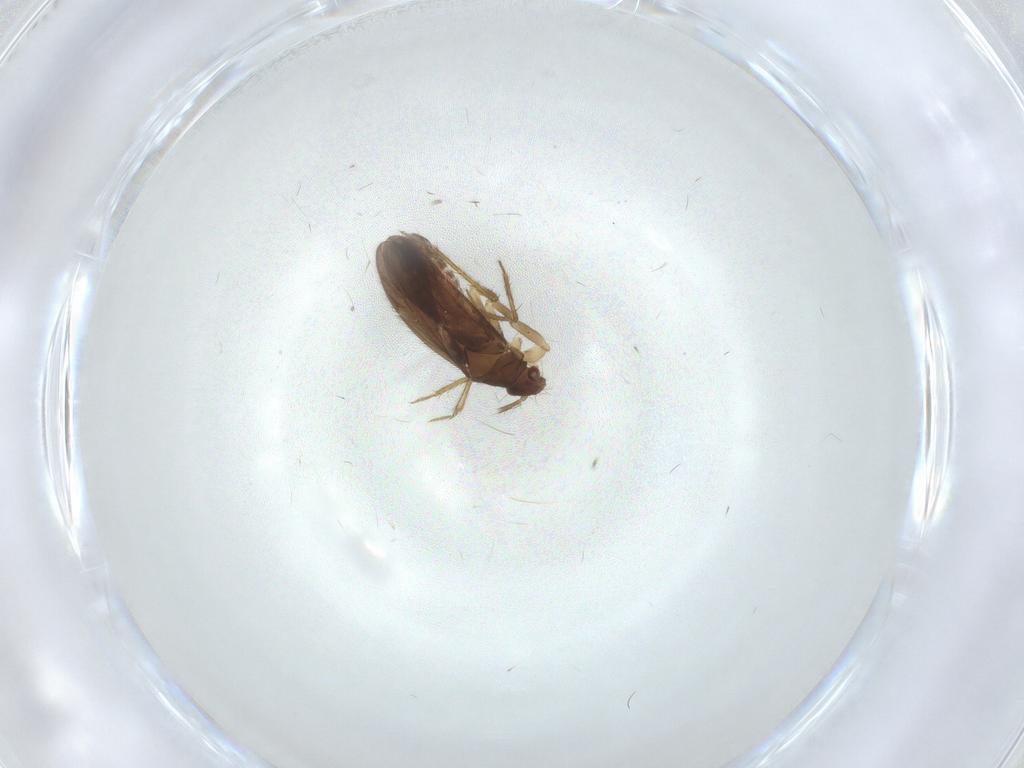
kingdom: Animalia
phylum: Arthropoda
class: Insecta
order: Hemiptera
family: Ceratocombidae
